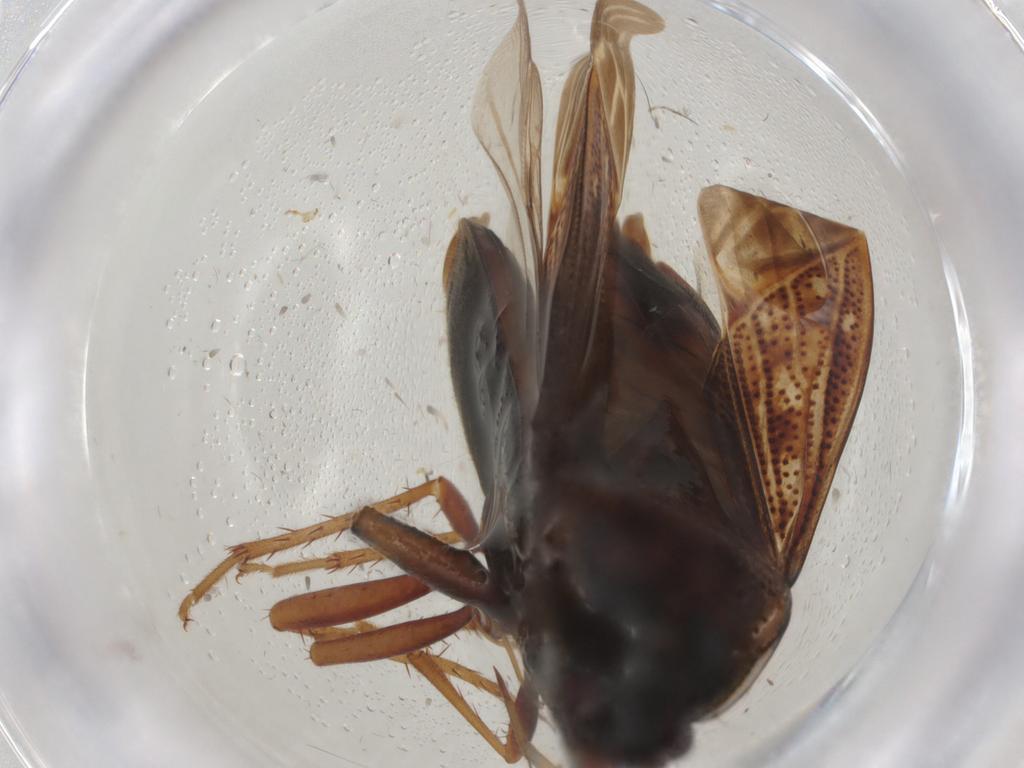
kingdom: Animalia
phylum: Arthropoda
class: Insecta
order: Hemiptera
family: Rhyparochromidae
